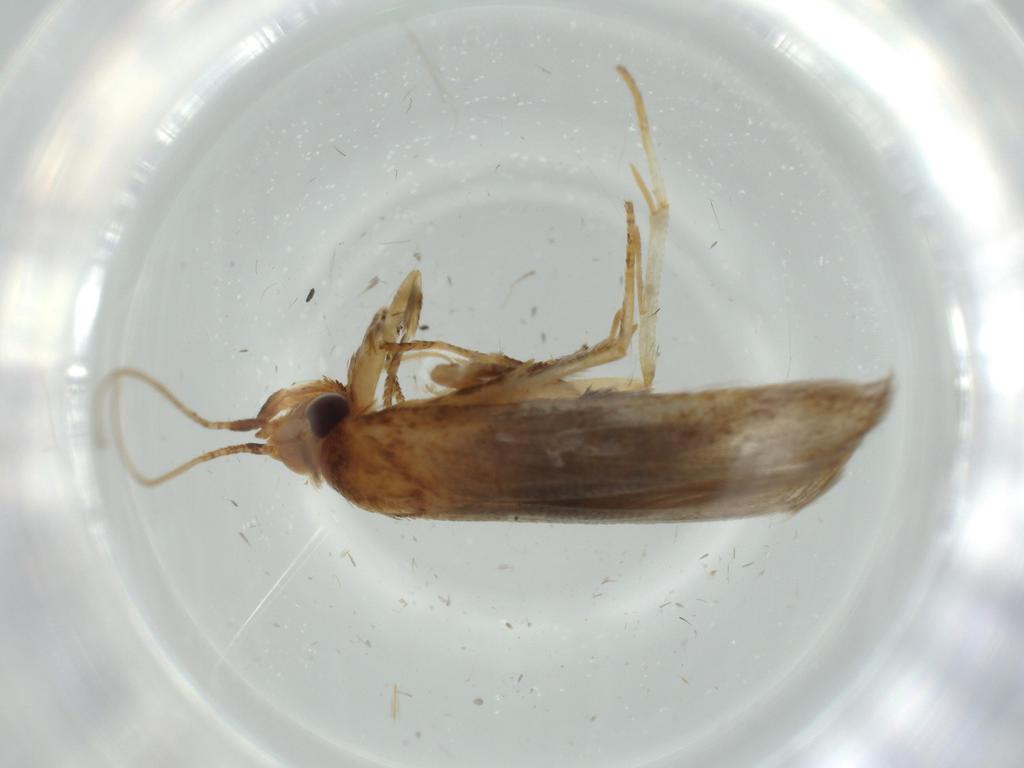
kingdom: Animalia
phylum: Arthropoda
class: Insecta
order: Lepidoptera
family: Blastobasidae
